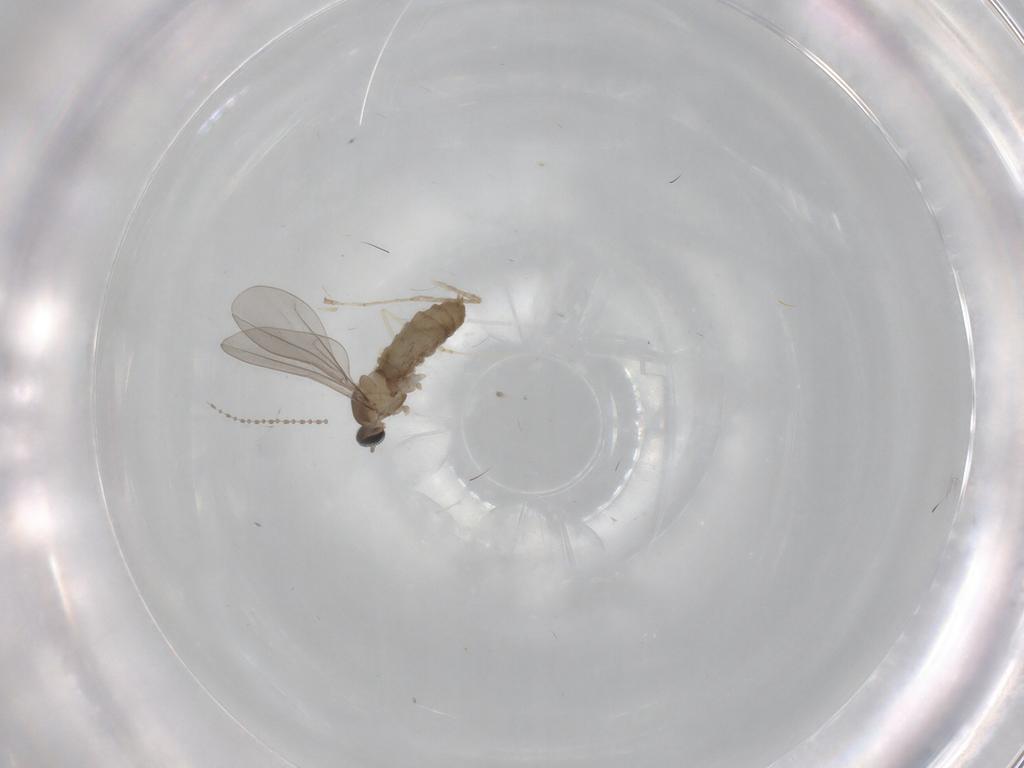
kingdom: Animalia
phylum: Arthropoda
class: Insecta
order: Diptera
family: Cecidomyiidae
